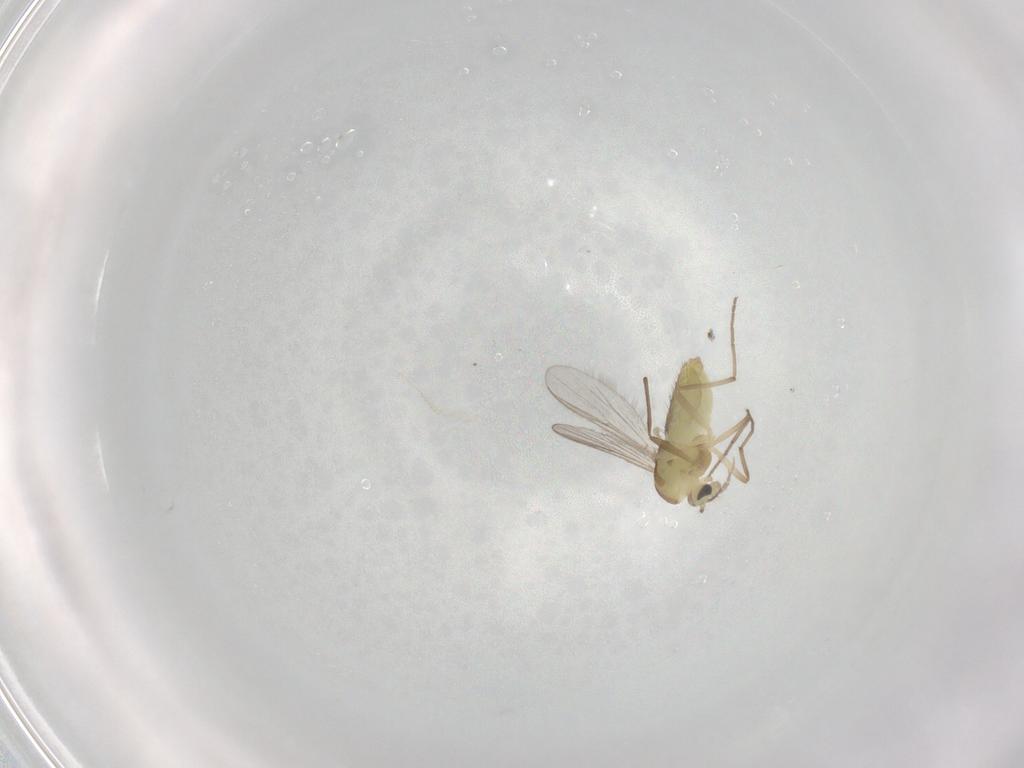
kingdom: Animalia
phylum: Arthropoda
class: Insecta
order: Diptera
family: Chironomidae
